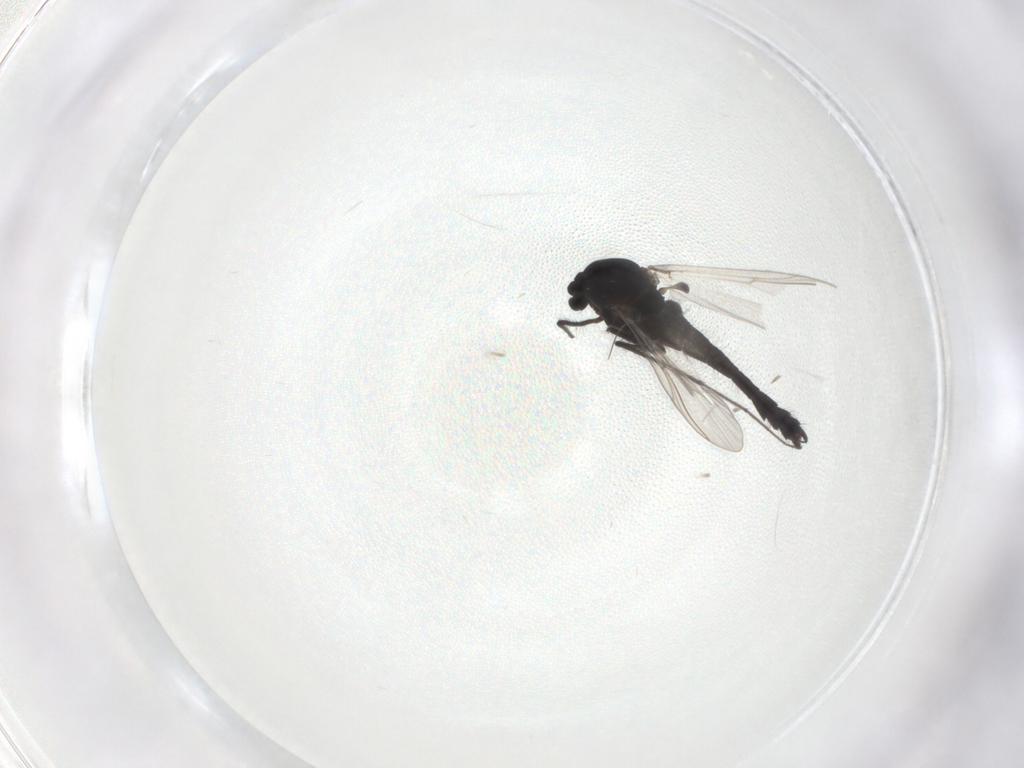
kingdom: Animalia
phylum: Arthropoda
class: Insecta
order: Diptera
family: Chironomidae
